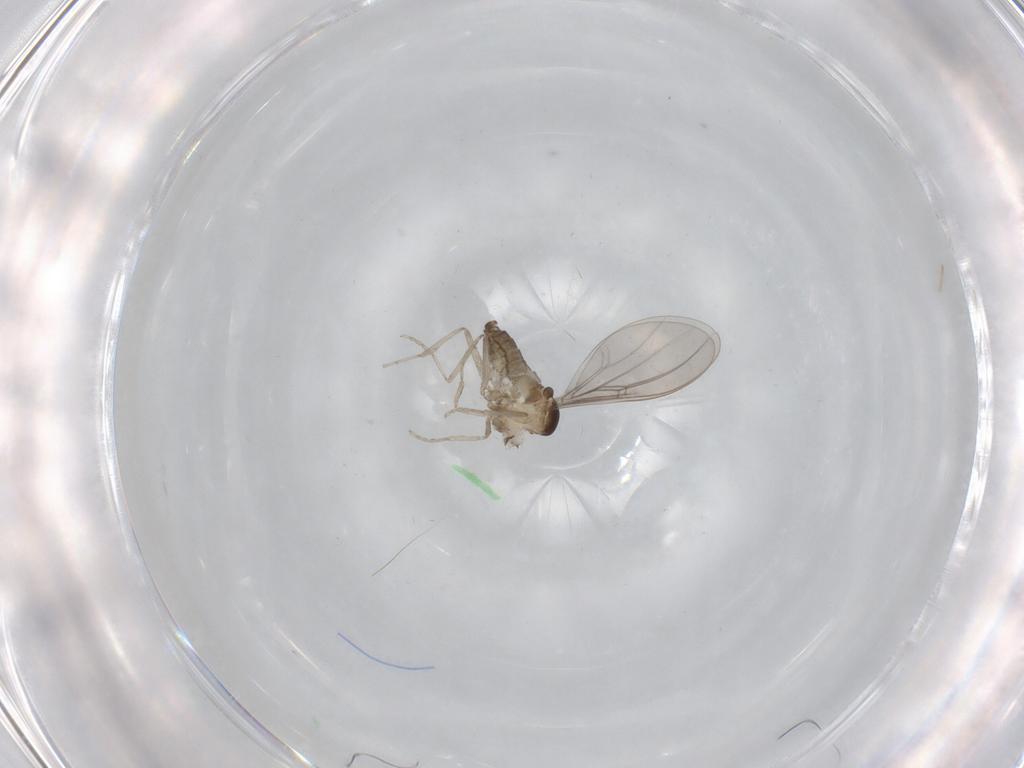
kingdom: Animalia
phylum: Arthropoda
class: Insecta
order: Diptera
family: Cecidomyiidae
